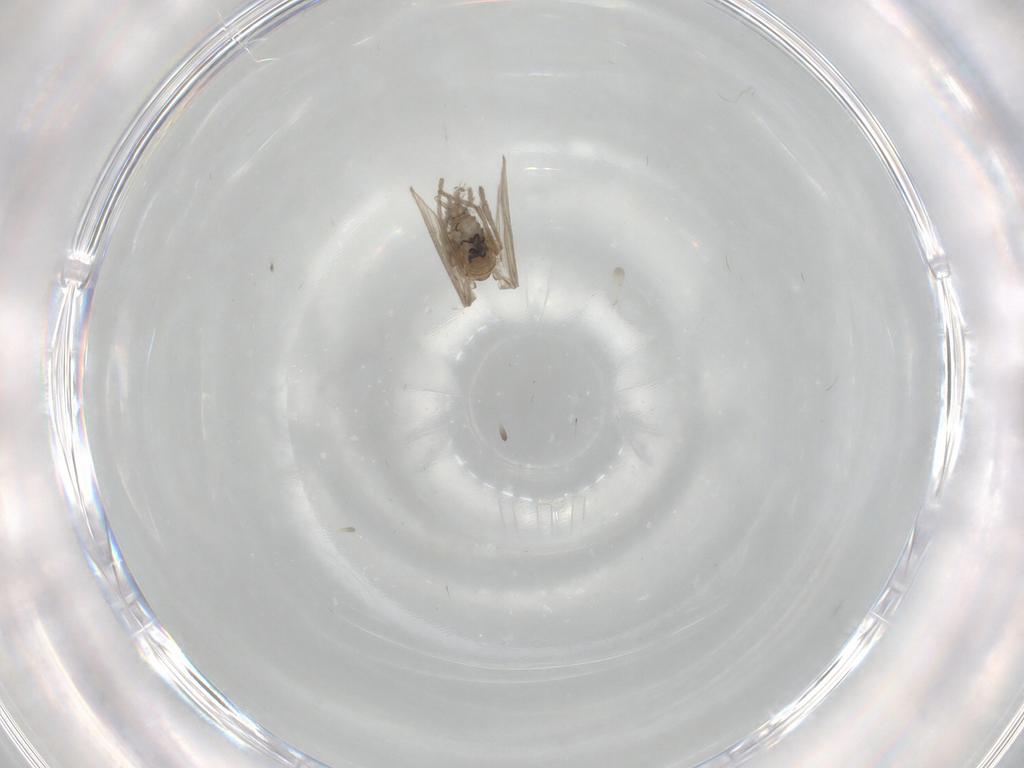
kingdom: Animalia
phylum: Arthropoda
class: Insecta
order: Diptera
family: Psychodidae
